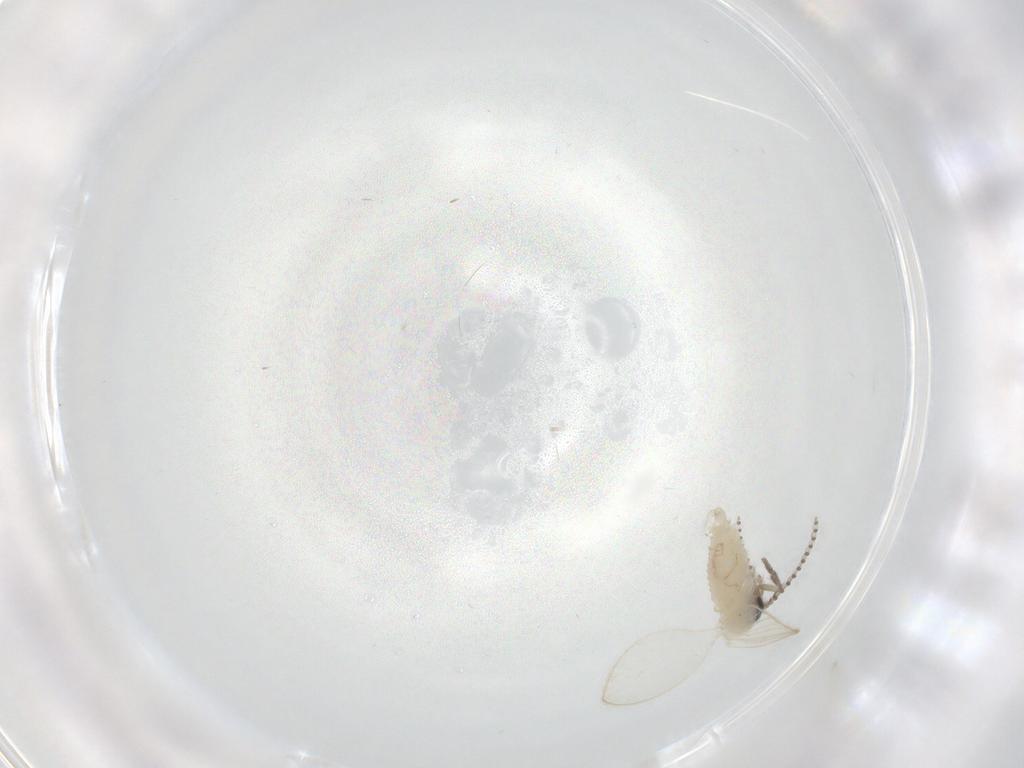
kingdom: Animalia
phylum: Arthropoda
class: Insecta
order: Diptera
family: Psychodidae
